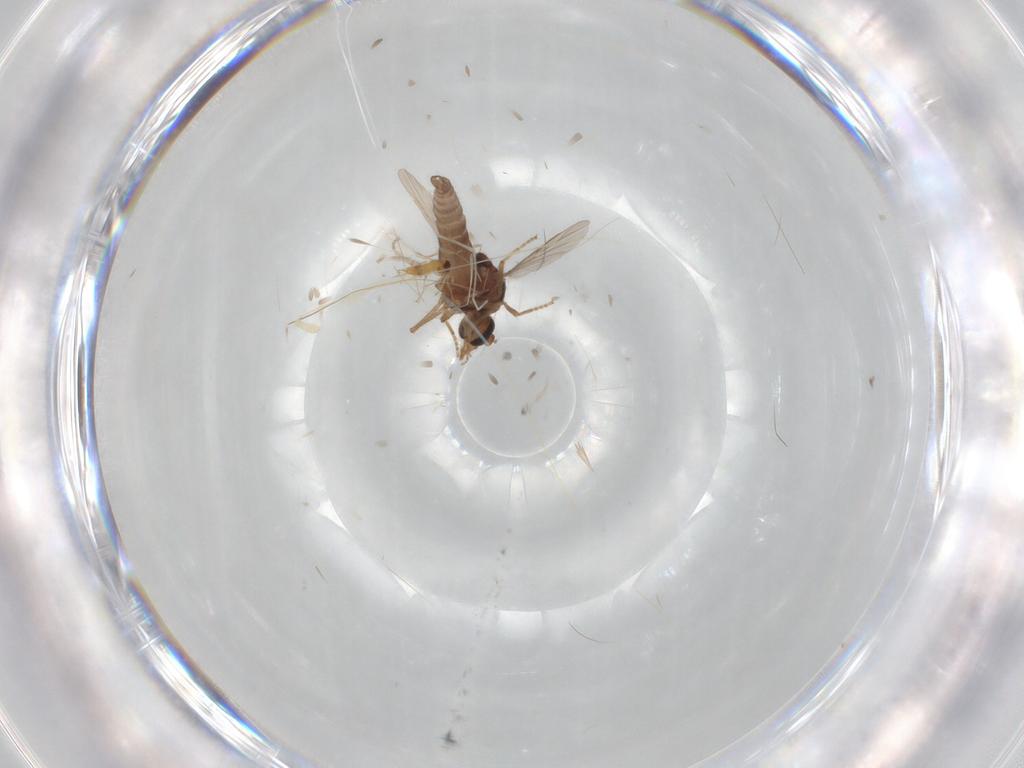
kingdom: Animalia
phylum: Arthropoda
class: Insecta
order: Diptera
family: Ceratopogonidae
